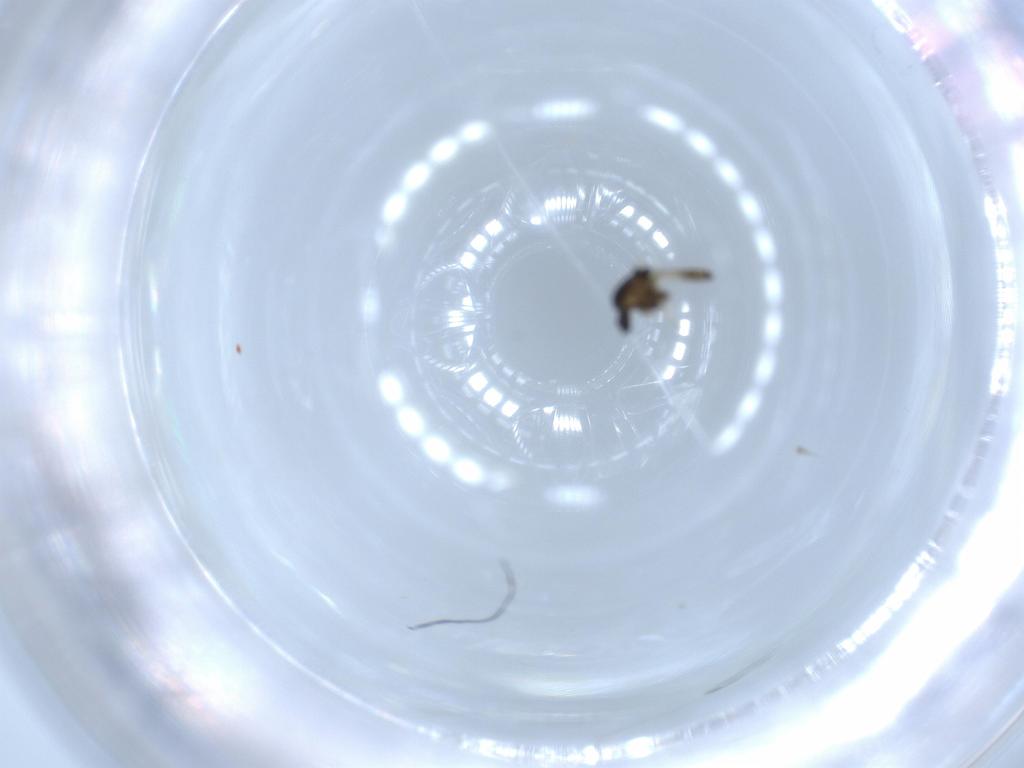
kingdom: Animalia
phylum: Arthropoda
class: Insecta
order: Diptera
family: Chironomidae
